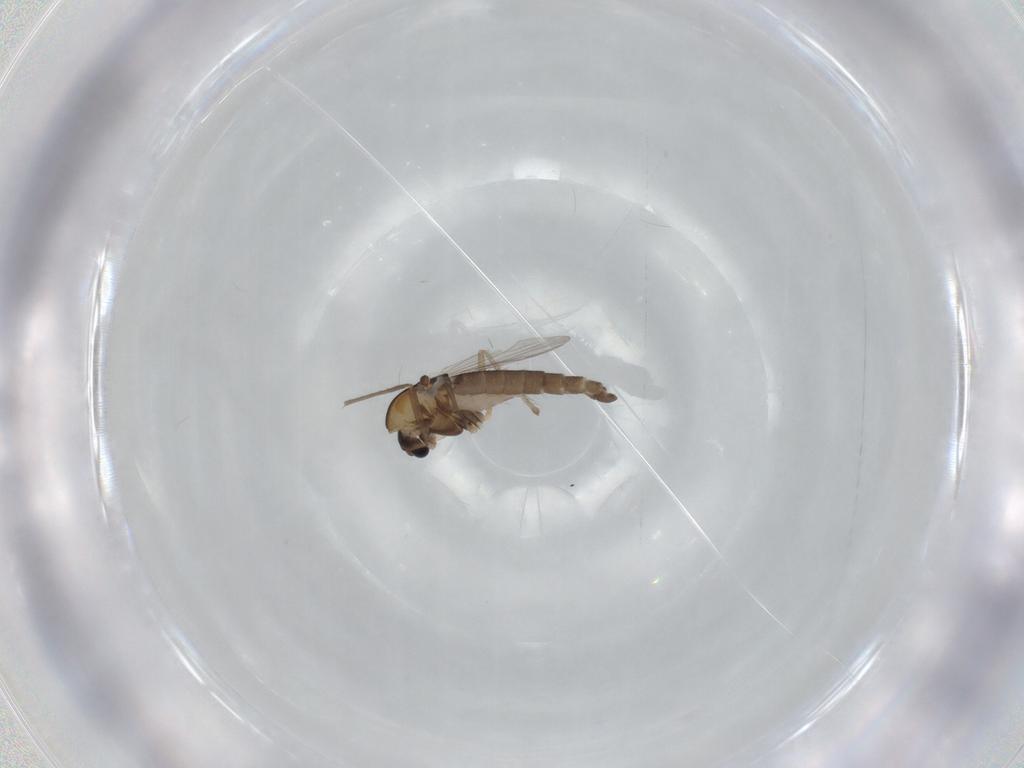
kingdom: Animalia
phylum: Arthropoda
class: Insecta
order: Diptera
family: Chironomidae
